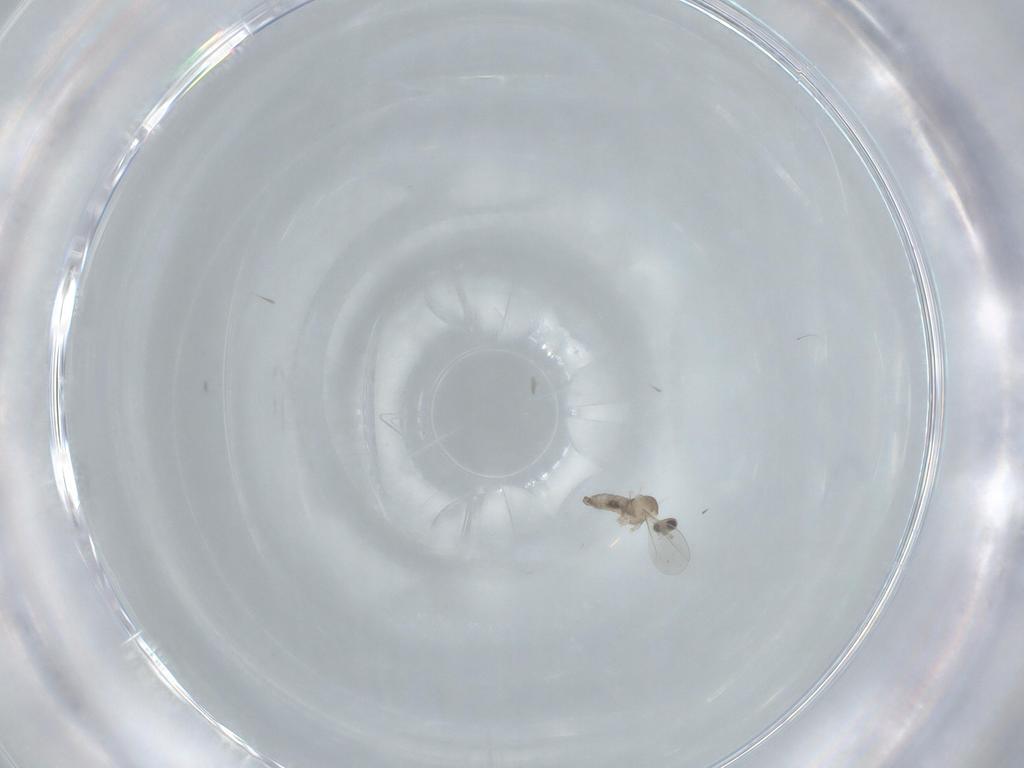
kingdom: Animalia
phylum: Arthropoda
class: Insecta
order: Diptera
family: Cecidomyiidae
